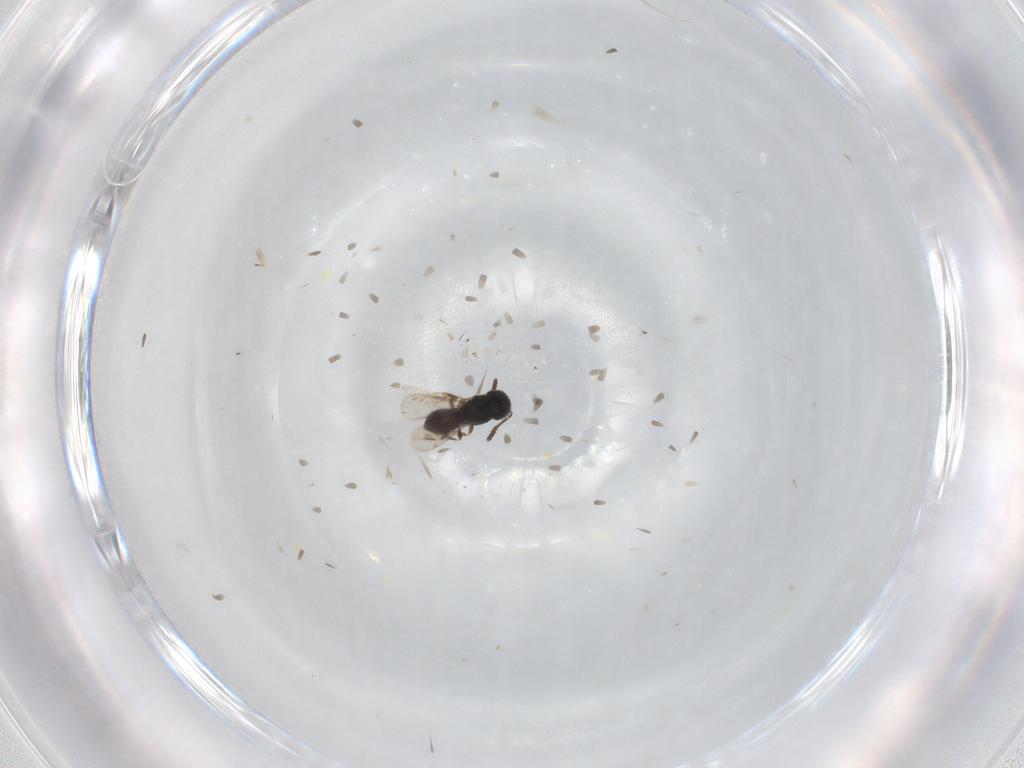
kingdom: Animalia
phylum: Arthropoda
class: Insecta
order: Hymenoptera
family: Scelionidae
